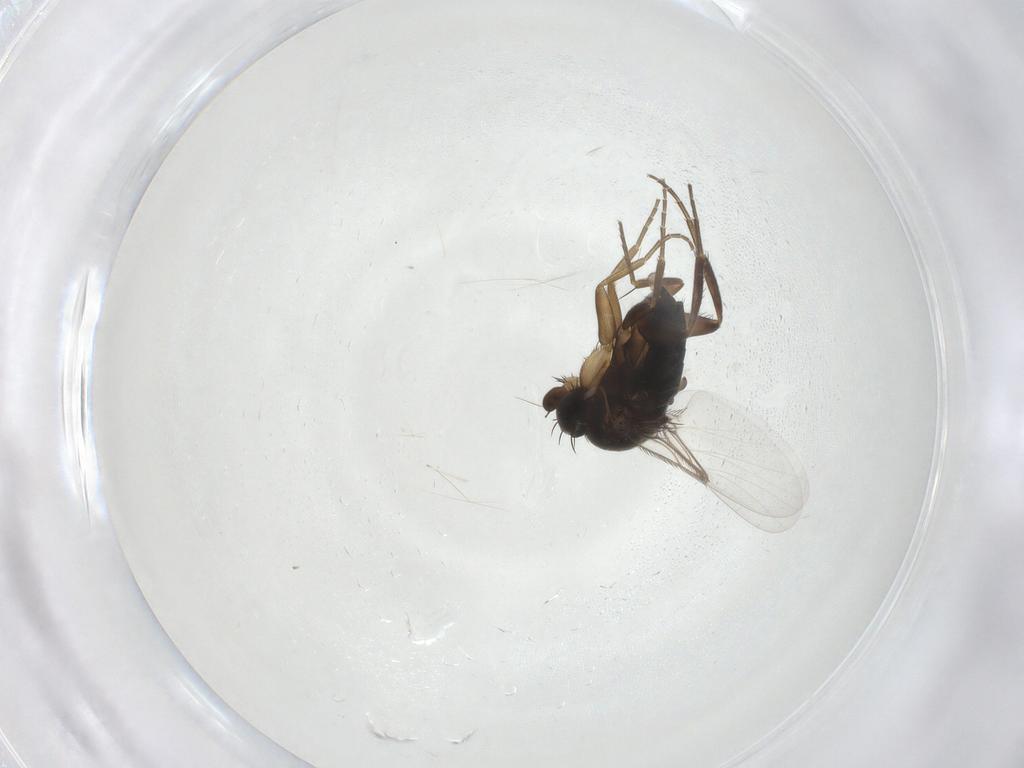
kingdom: Animalia
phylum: Arthropoda
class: Insecta
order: Diptera
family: Phoridae
